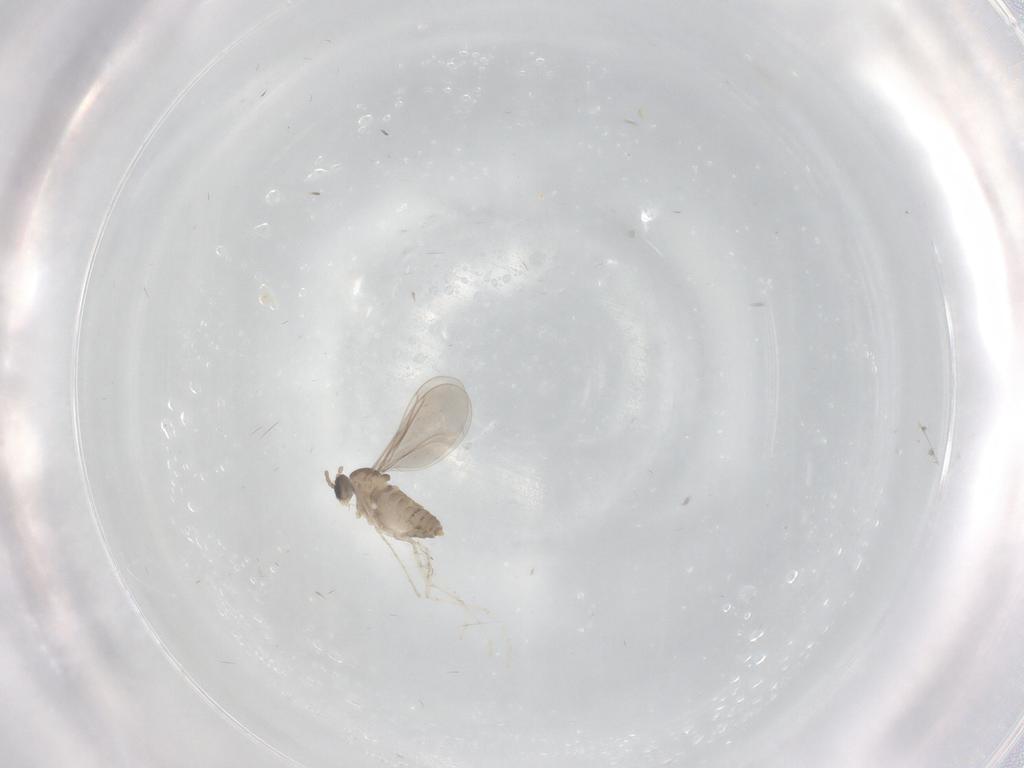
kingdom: Animalia
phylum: Arthropoda
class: Insecta
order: Diptera
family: Cecidomyiidae
